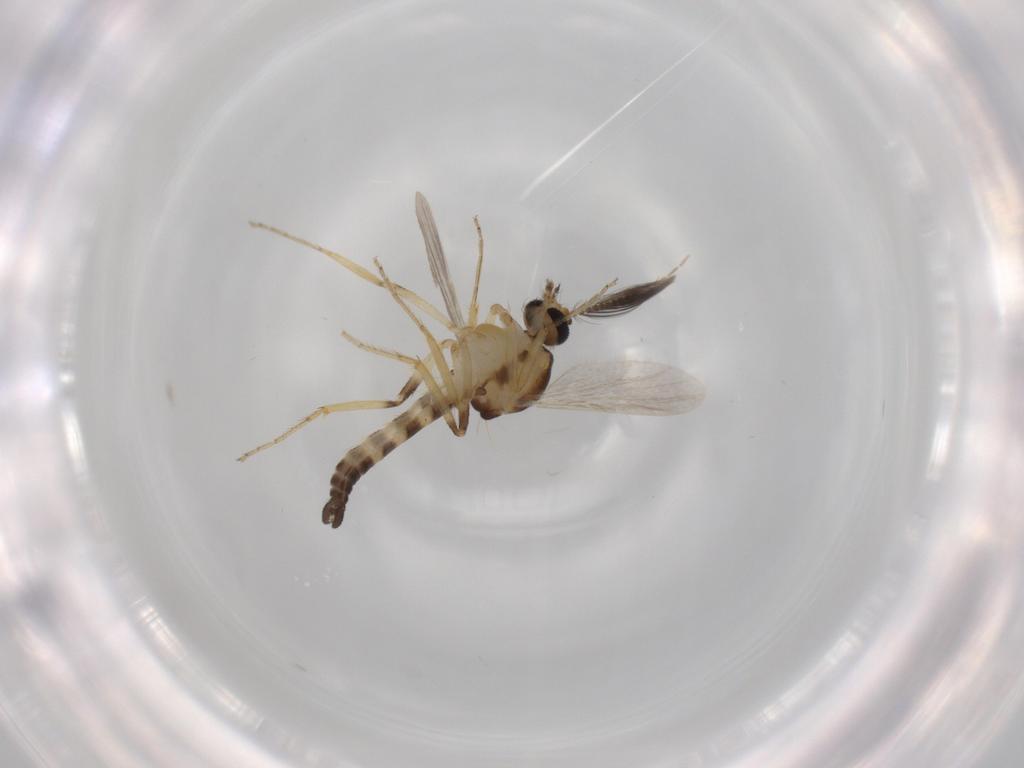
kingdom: Animalia
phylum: Arthropoda
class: Insecta
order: Diptera
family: Ceratopogonidae
